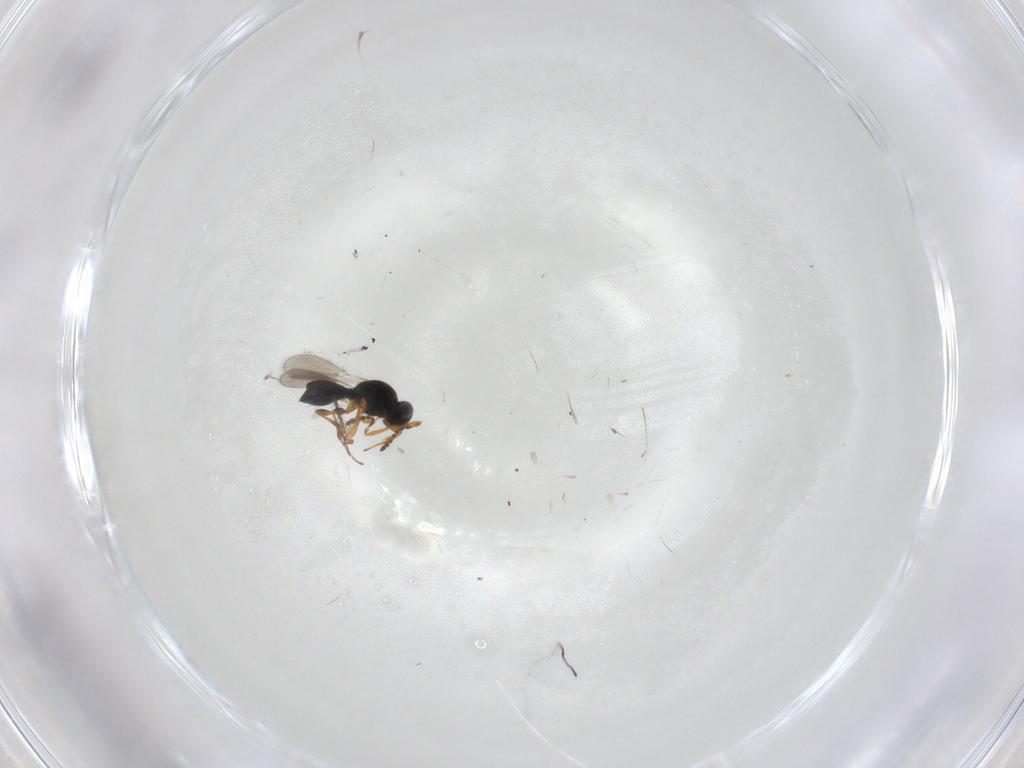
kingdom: Animalia
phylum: Arthropoda
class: Insecta
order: Hymenoptera
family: Platygastridae
